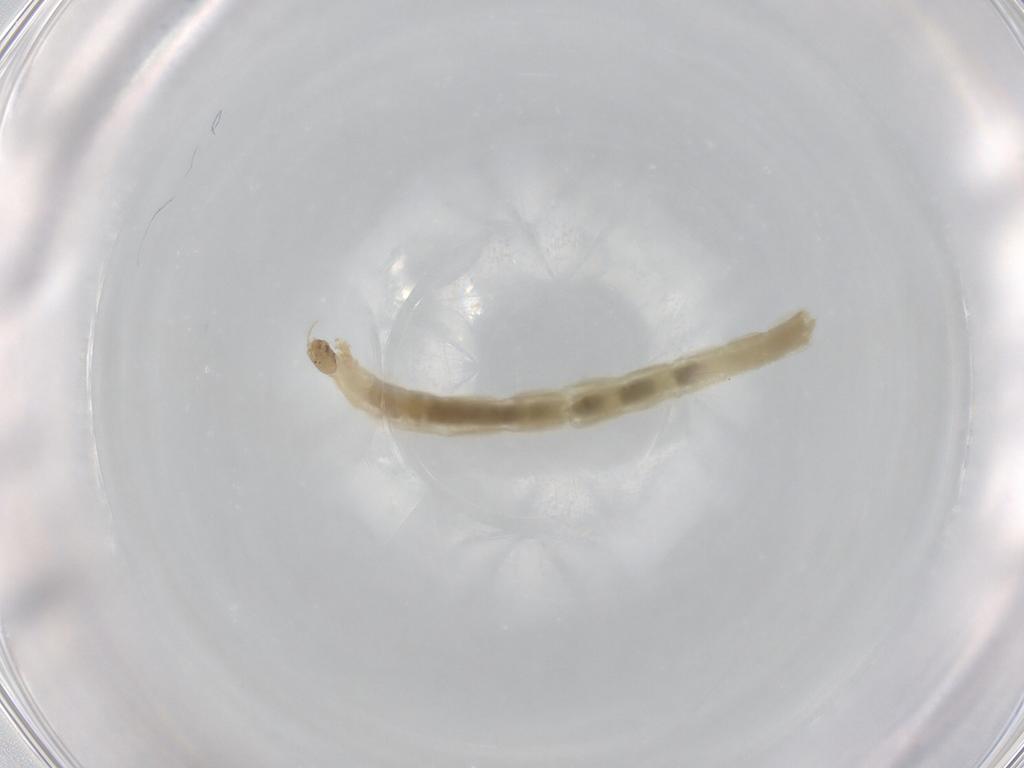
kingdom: Animalia
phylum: Arthropoda
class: Insecta
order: Diptera
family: Chironomidae
